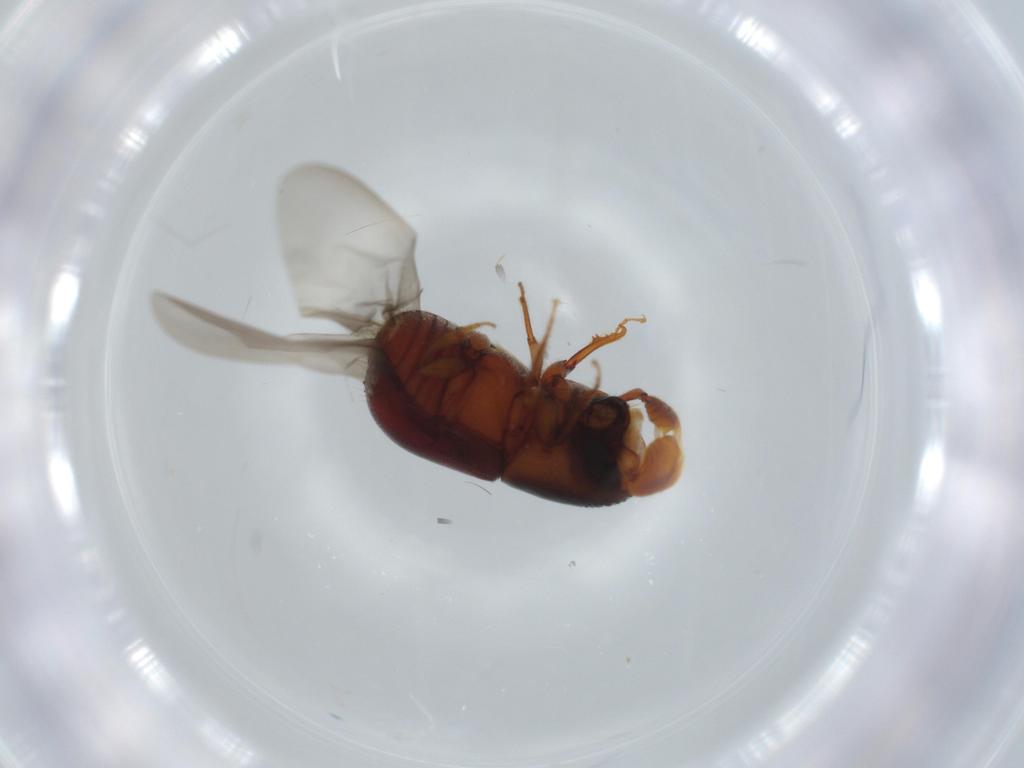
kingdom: Animalia
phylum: Arthropoda
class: Insecta
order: Coleoptera
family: Curculionidae
